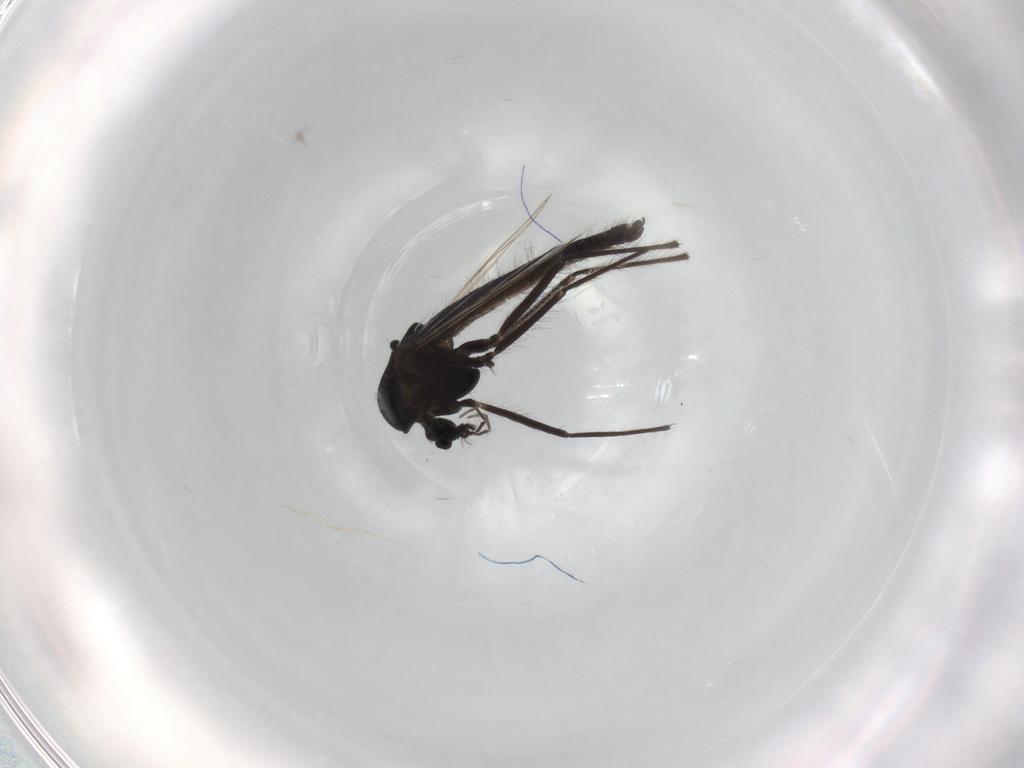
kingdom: Animalia
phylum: Arthropoda
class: Insecta
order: Diptera
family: Chironomidae
